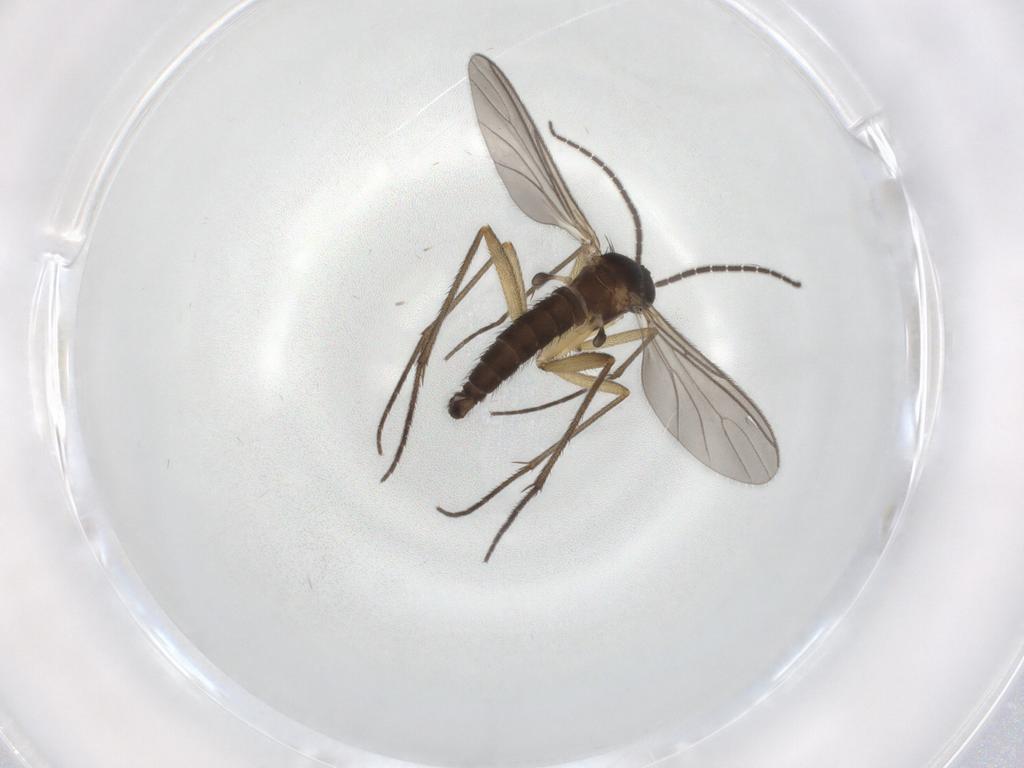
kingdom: Animalia
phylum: Arthropoda
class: Insecta
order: Diptera
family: Sciaridae
